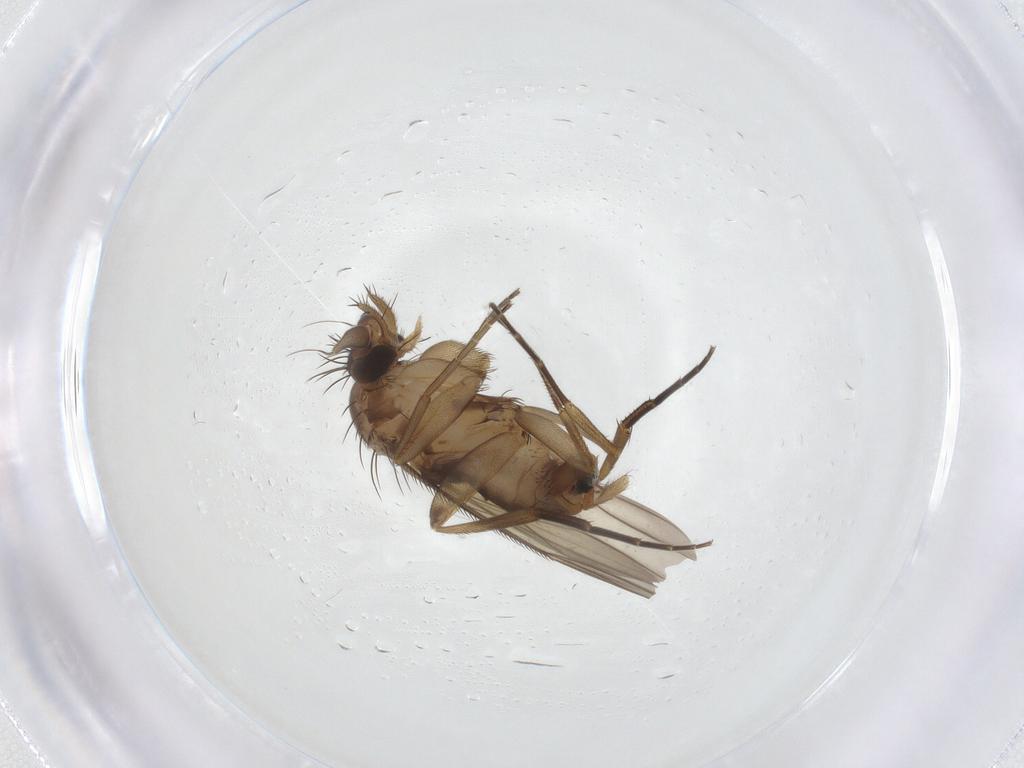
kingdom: Animalia
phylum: Arthropoda
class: Insecta
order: Diptera
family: Phoridae
